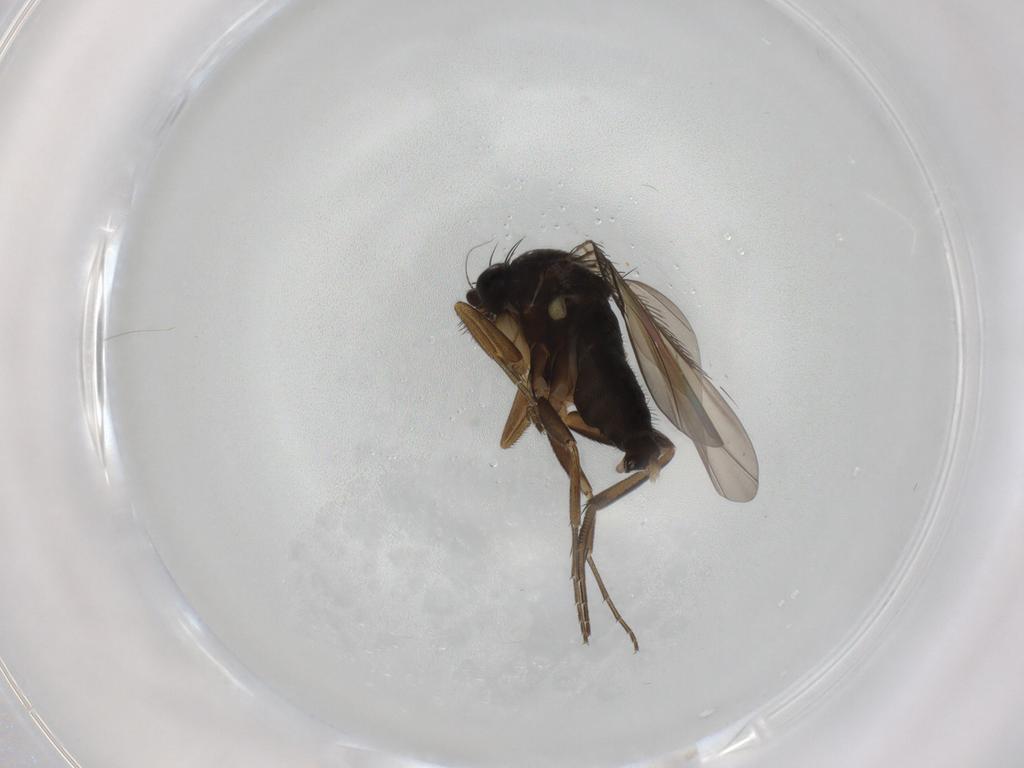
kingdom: Animalia
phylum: Arthropoda
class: Insecta
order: Diptera
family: Phoridae
